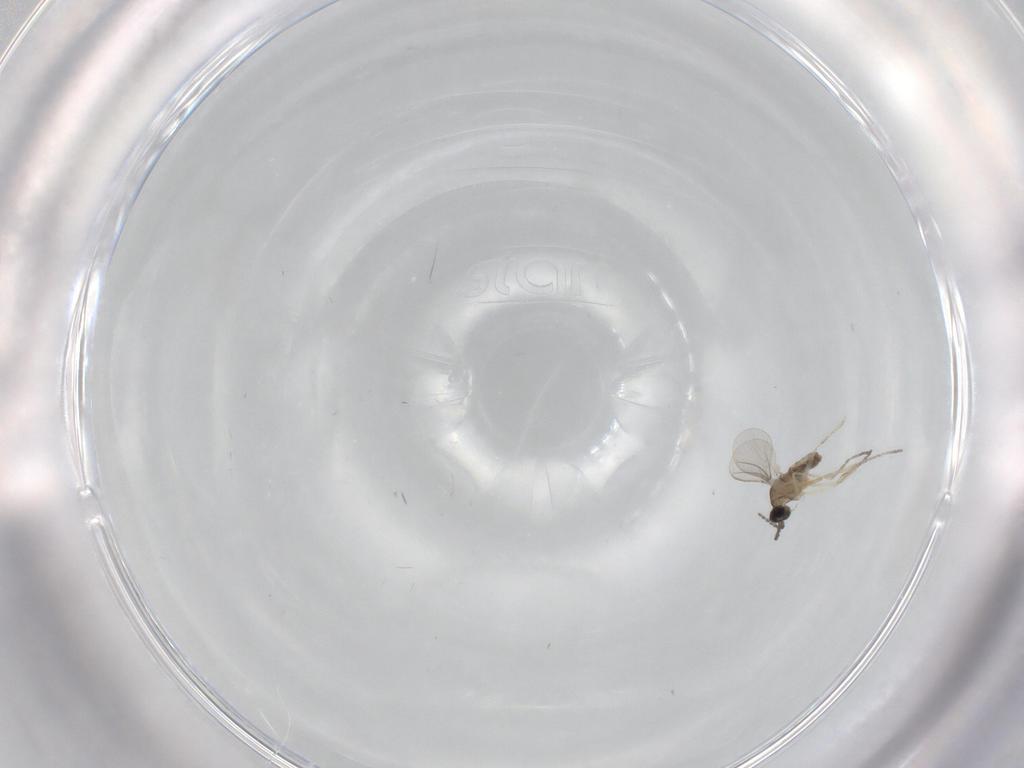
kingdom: Animalia
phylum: Arthropoda
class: Insecta
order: Diptera
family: Cecidomyiidae
